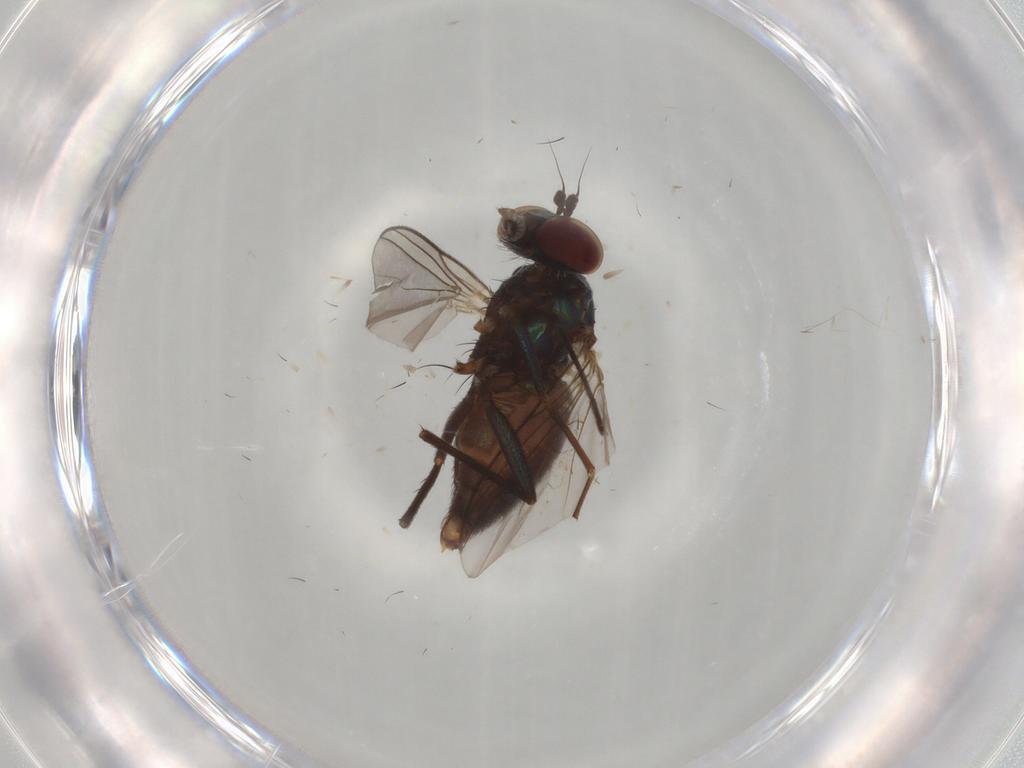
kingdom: Animalia
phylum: Arthropoda
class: Insecta
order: Diptera
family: Dolichopodidae
